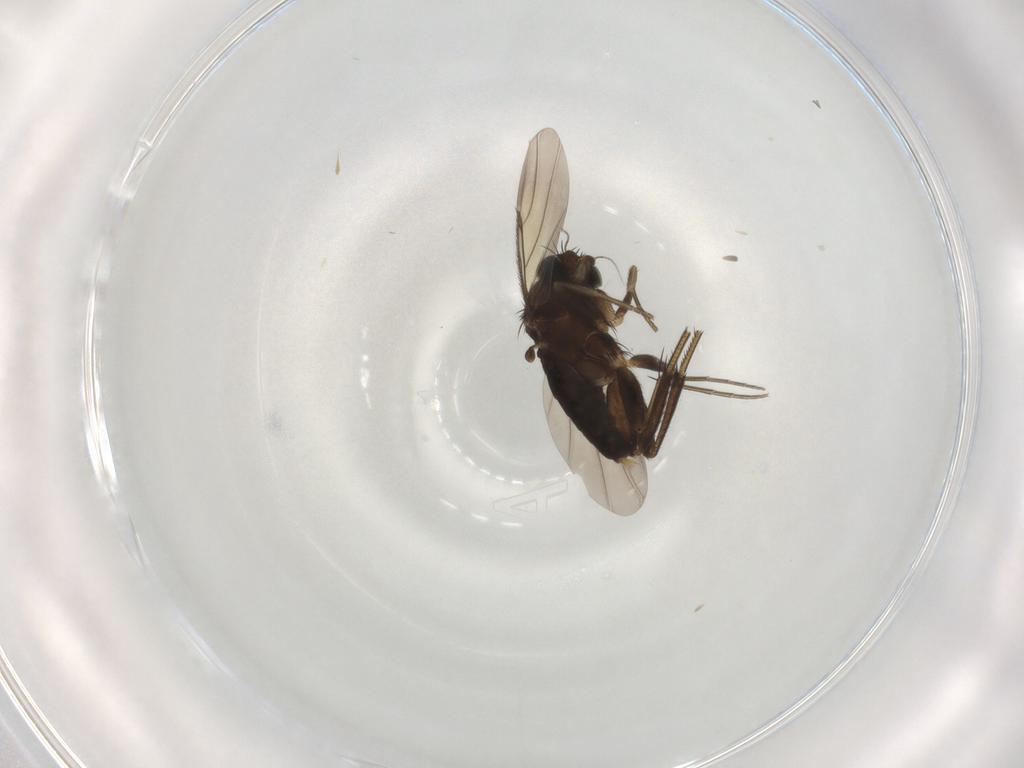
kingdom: Animalia
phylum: Arthropoda
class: Insecta
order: Diptera
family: Phoridae
